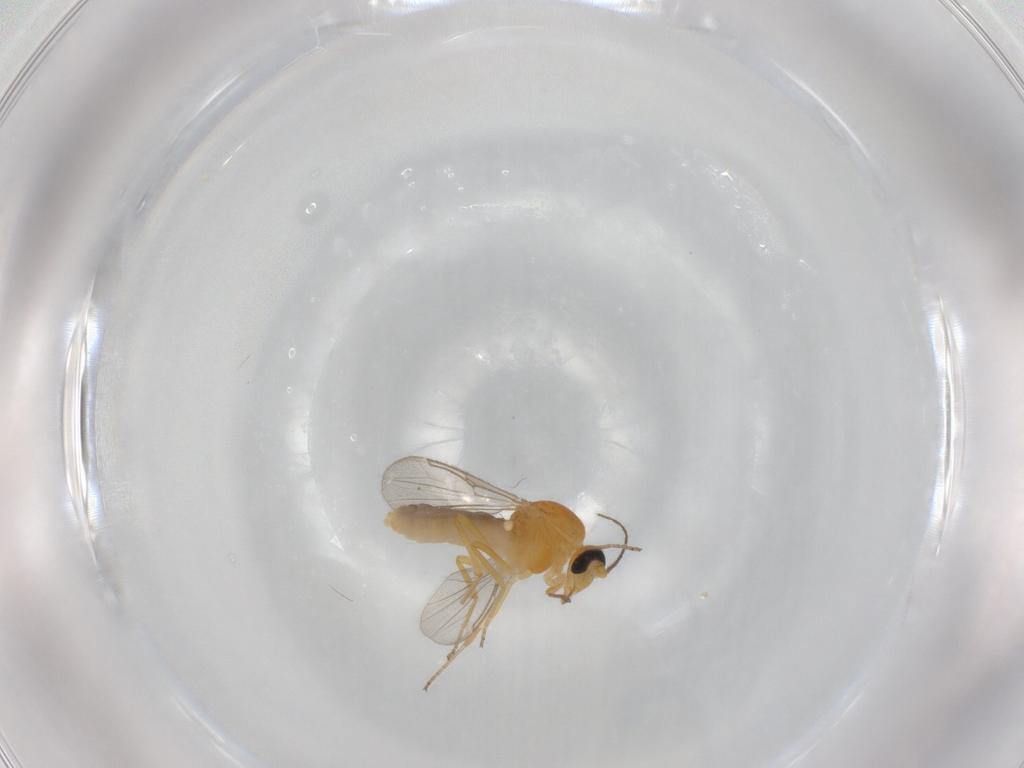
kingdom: Animalia
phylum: Arthropoda
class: Insecta
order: Diptera
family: Ceratopogonidae
